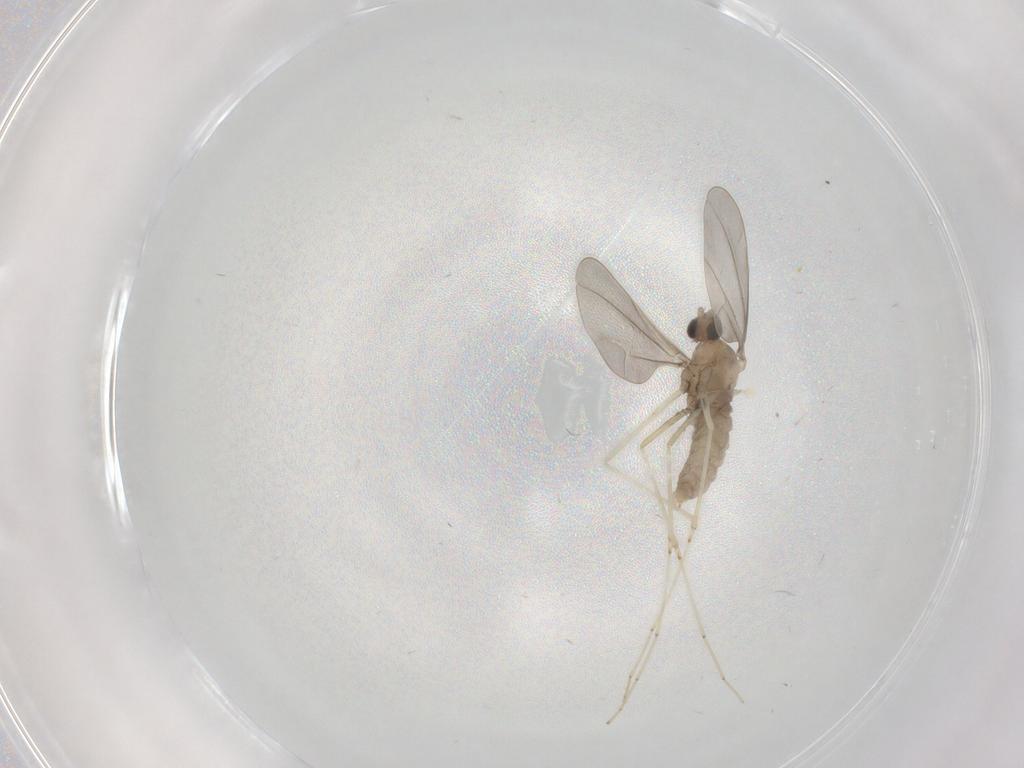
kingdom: Animalia
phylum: Arthropoda
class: Insecta
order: Diptera
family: Cecidomyiidae
